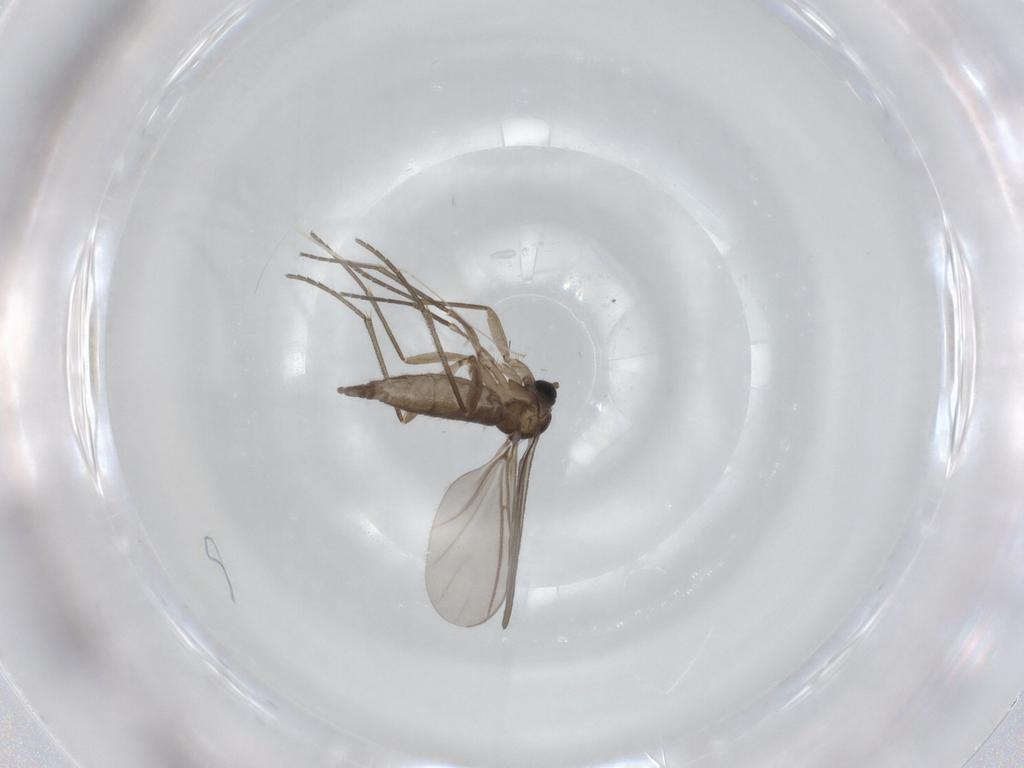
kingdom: Animalia
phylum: Arthropoda
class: Insecta
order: Diptera
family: Sciaridae
